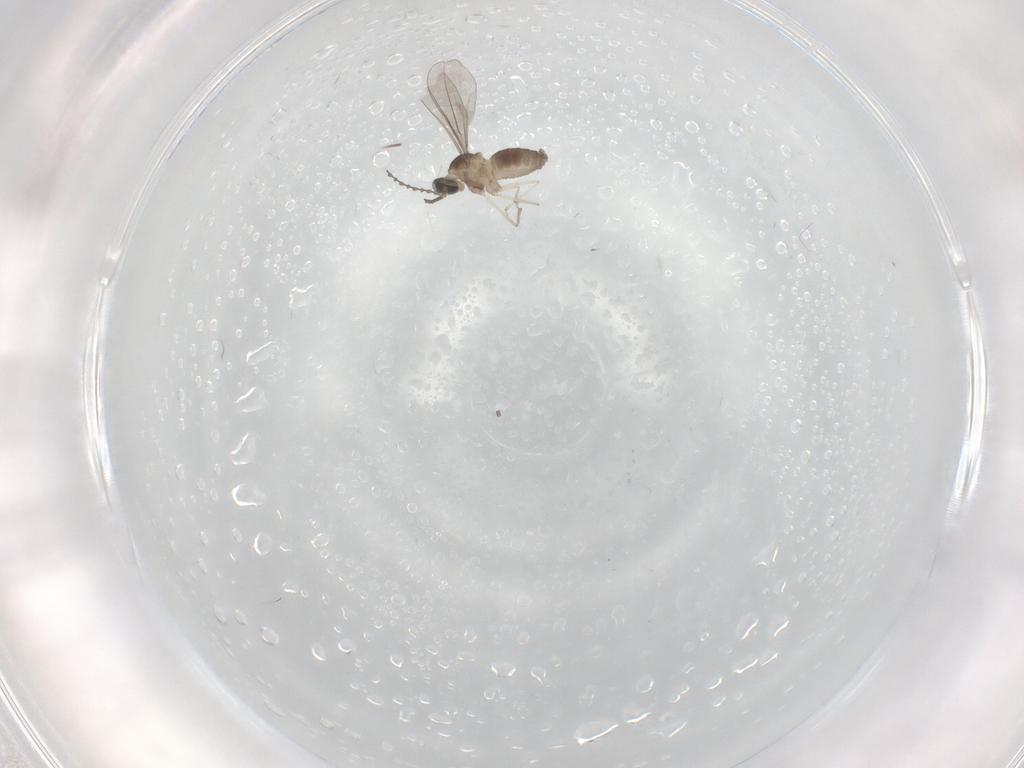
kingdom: Animalia
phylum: Arthropoda
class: Insecta
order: Diptera
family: Cecidomyiidae
